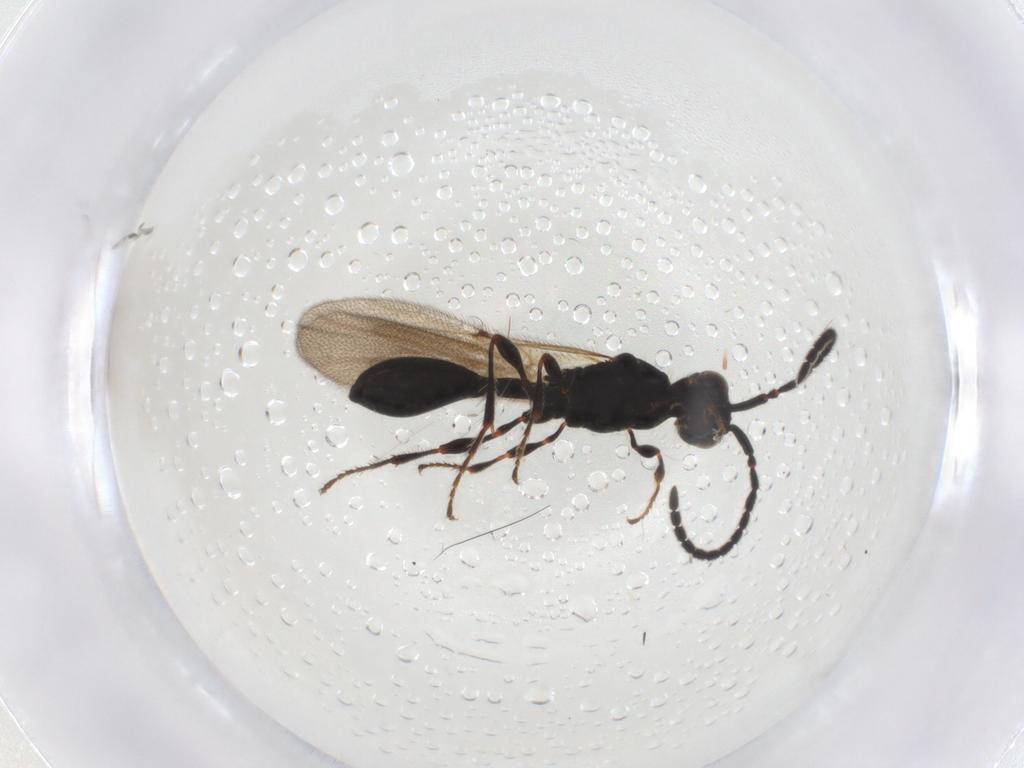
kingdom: Animalia
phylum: Arthropoda
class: Insecta
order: Hymenoptera
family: Diapriidae
